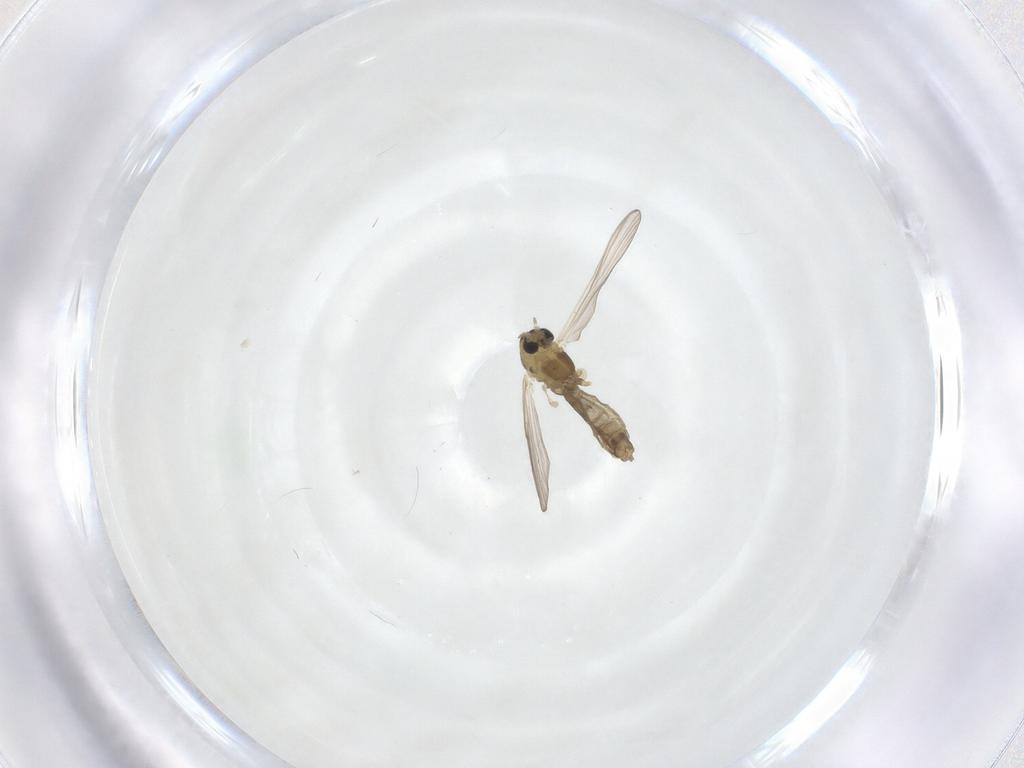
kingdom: Animalia
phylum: Arthropoda
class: Insecta
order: Diptera
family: Chironomidae
